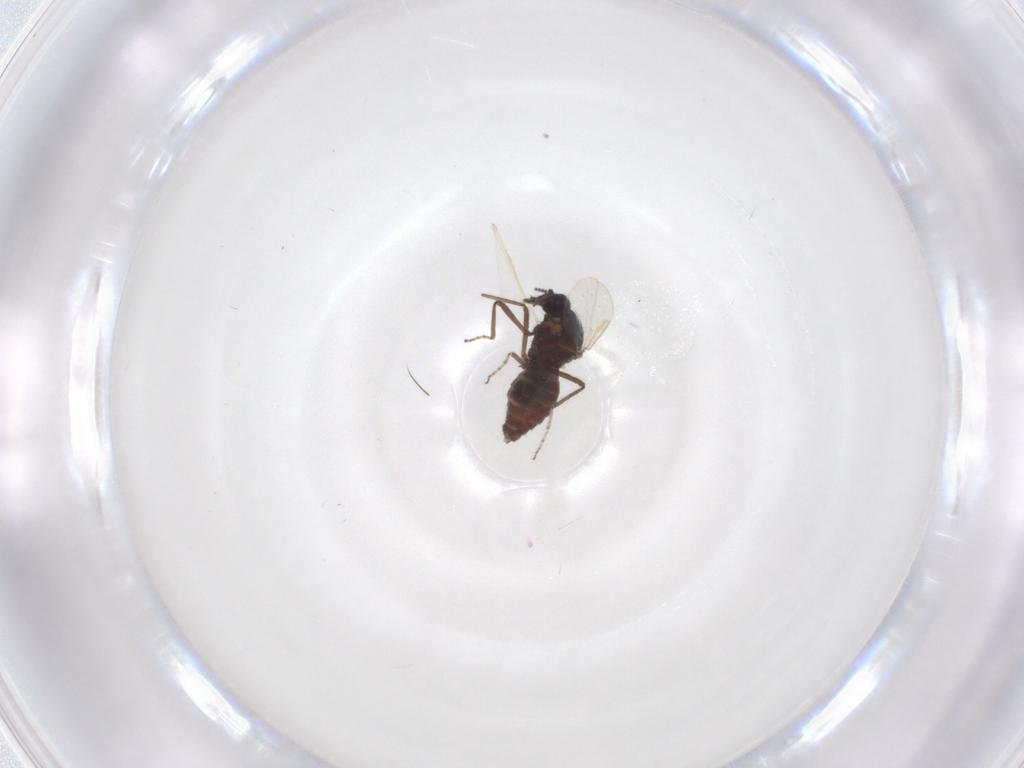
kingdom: Animalia
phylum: Arthropoda
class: Insecta
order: Diptera
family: Ceratopogonidae
